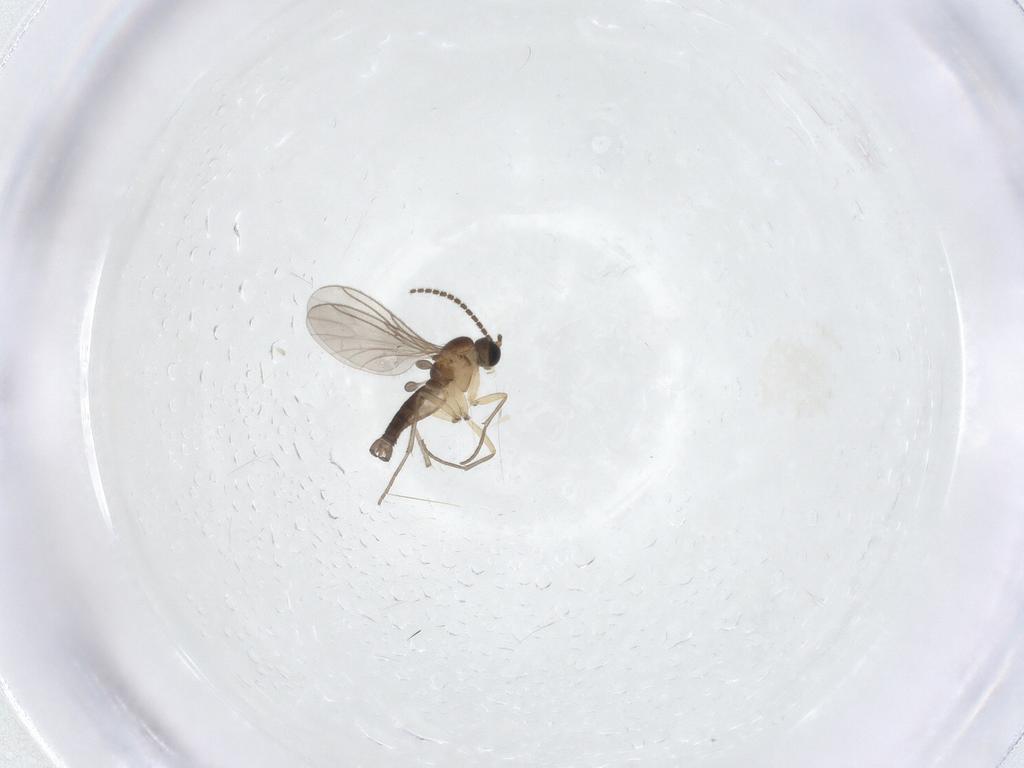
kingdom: Animalia
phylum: Arthropoda
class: Insecta
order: Diptera
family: Sciaridae
